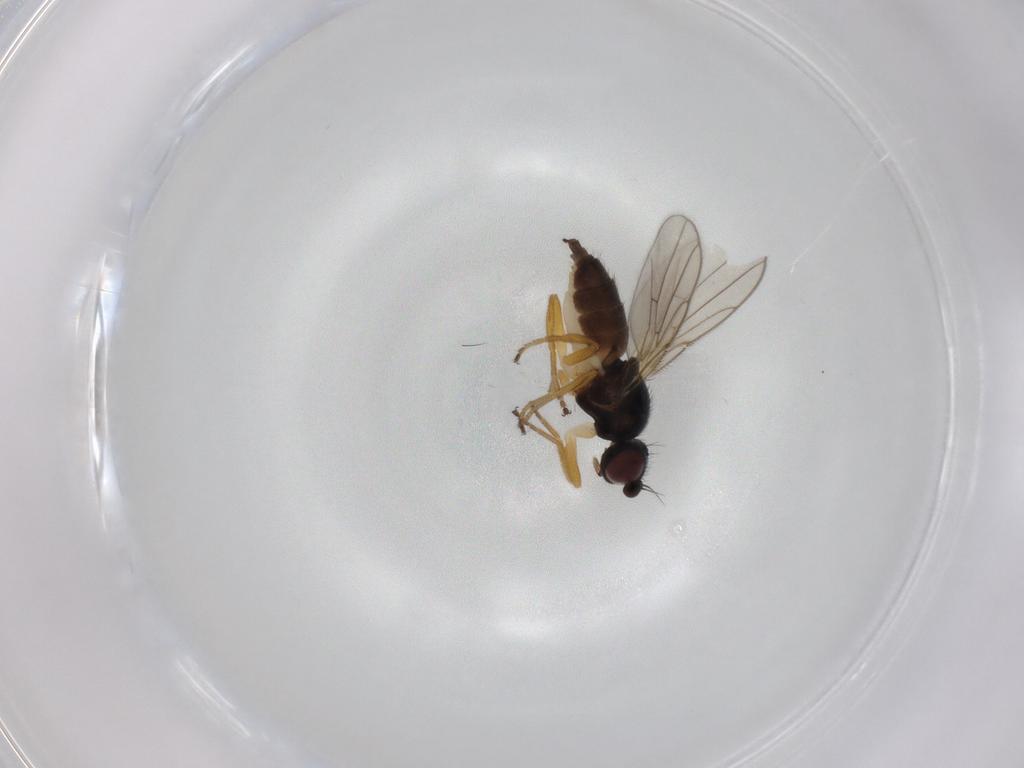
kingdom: Animalia
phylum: Arthropoda
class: Insecta
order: Diptera
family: Chloropidae
